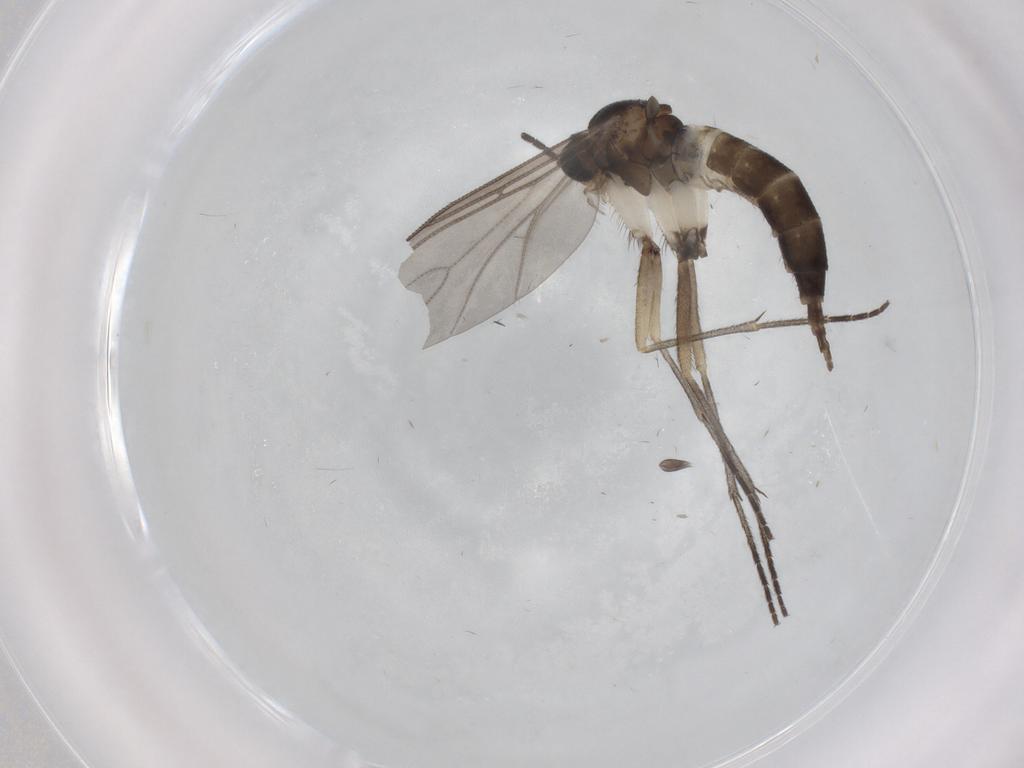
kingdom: Animalia
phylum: Arthropoda
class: Insecta
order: Diptera
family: Sciaridae
